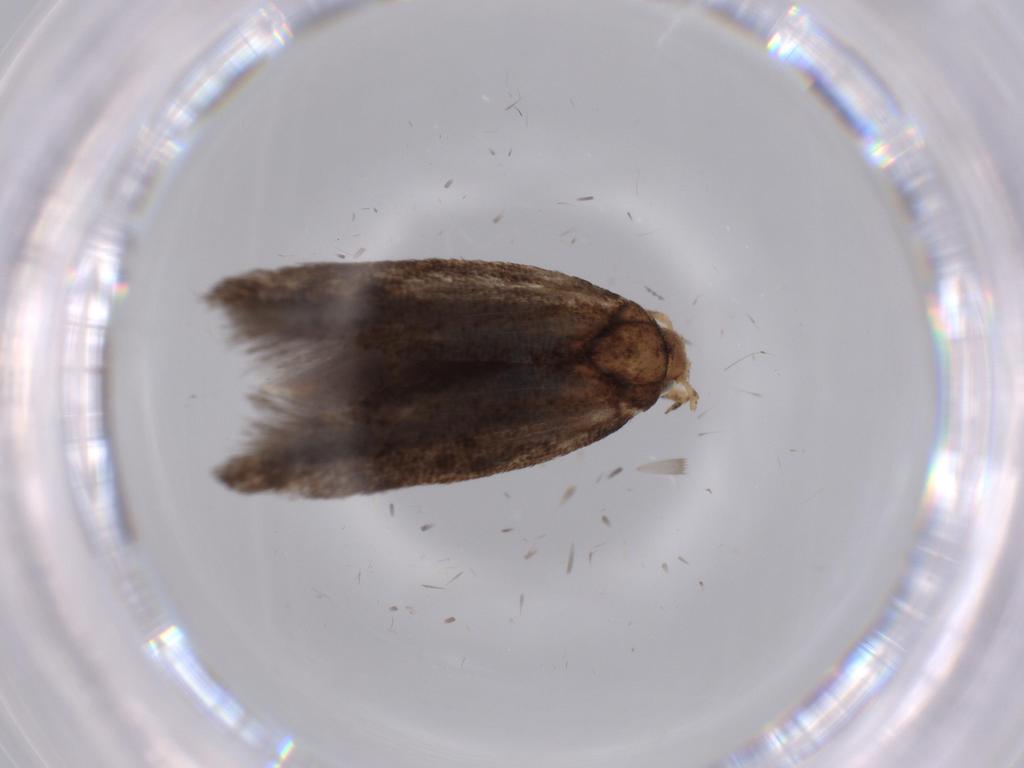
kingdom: Animalia
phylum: Arthropoda
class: Insecta
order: Lepidoptera
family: Gelechiidae
